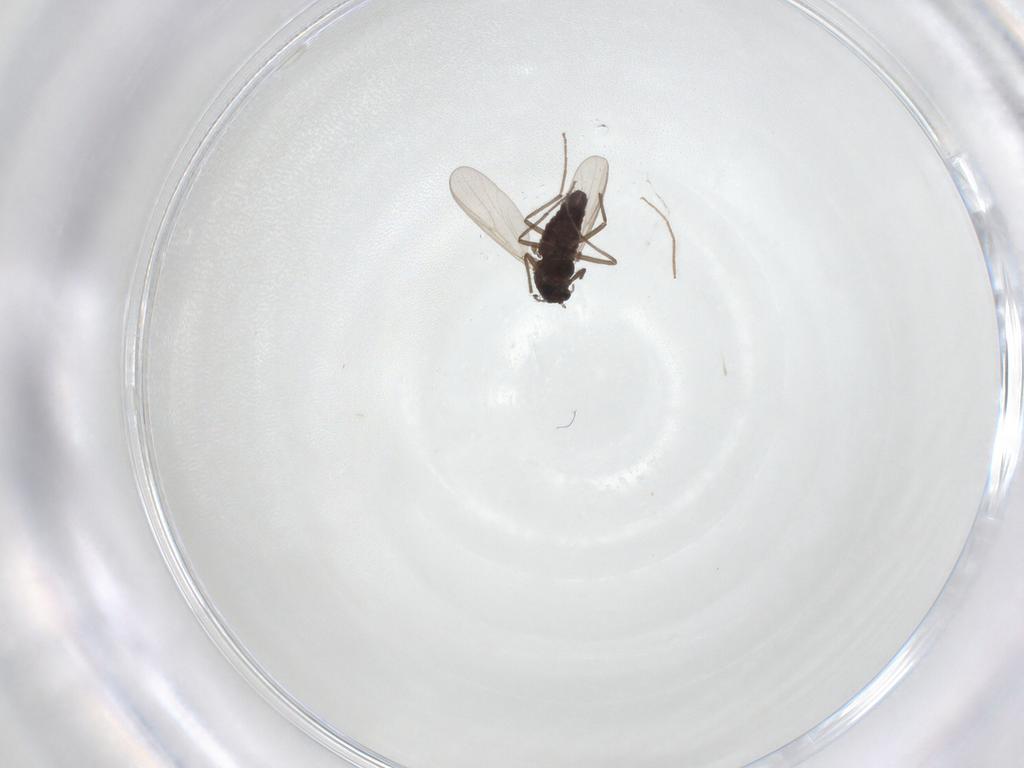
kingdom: Animalia
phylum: Arthropoda
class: Insecta
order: Diptera
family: Chironomidae
